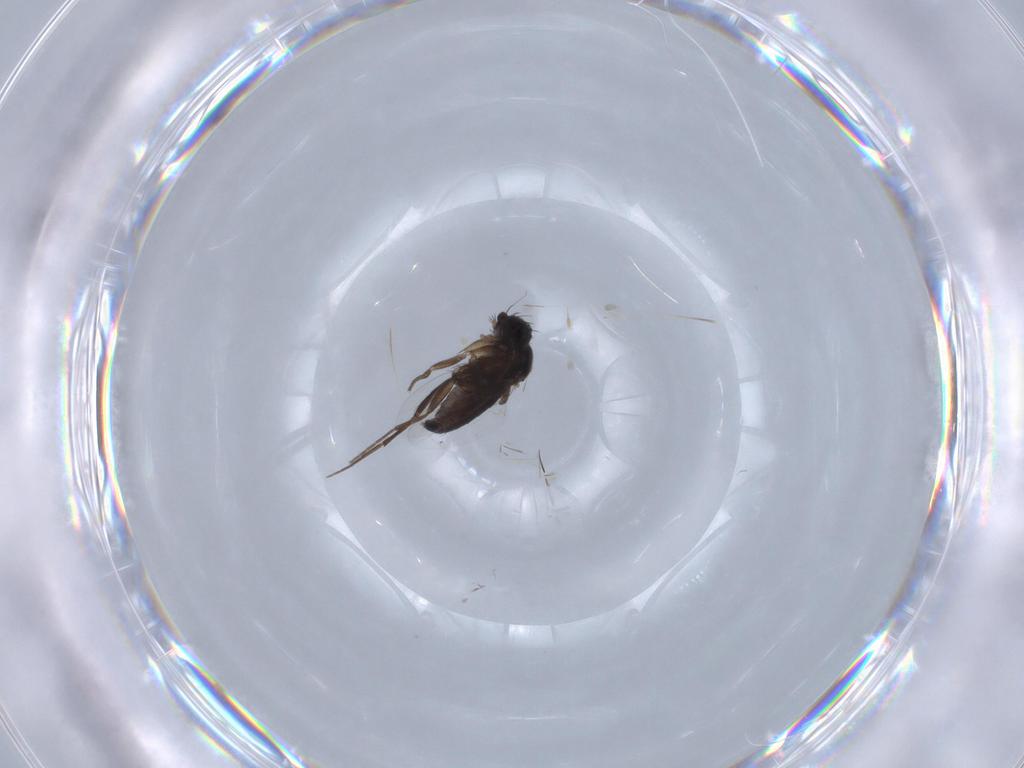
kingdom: Animalia
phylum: Arthropoda
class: Insecta
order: Diptera
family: Phoridae
